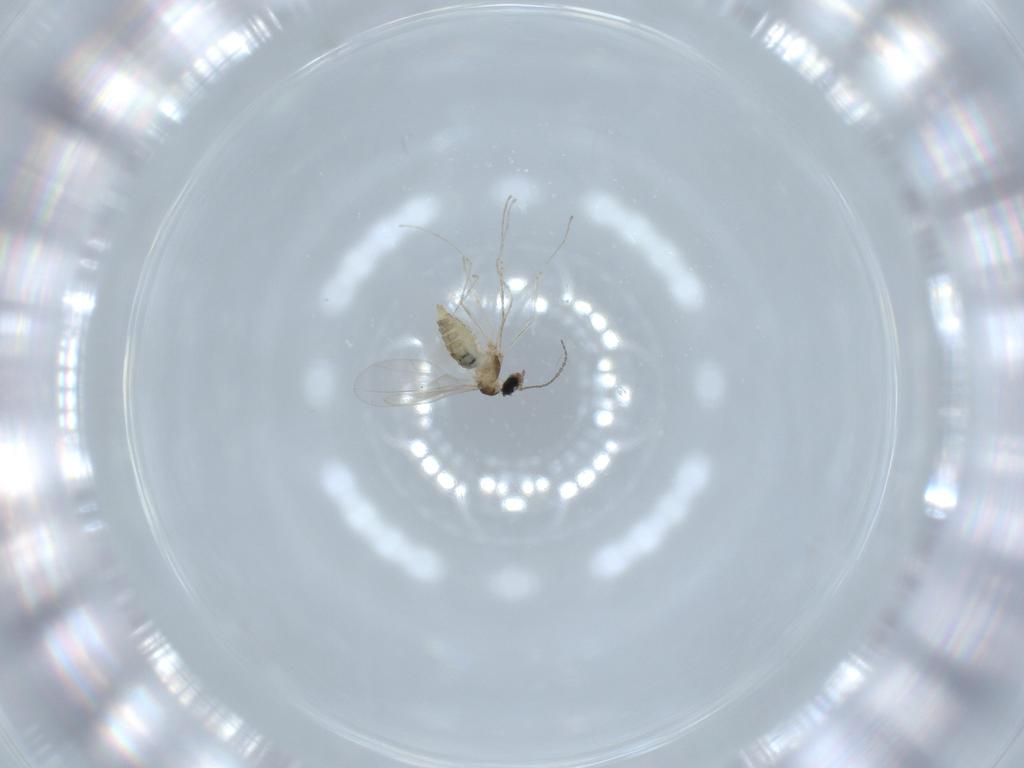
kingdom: Animalia
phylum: Arthropoda
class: Insecta
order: Diptera
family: Cecidomyiidae
